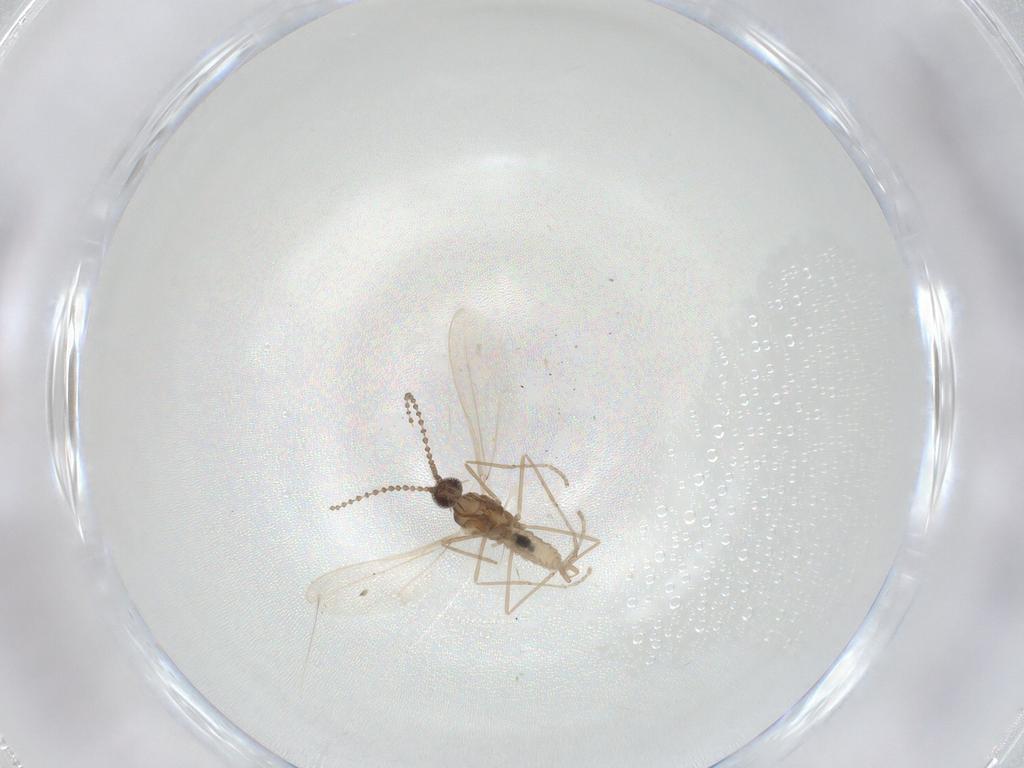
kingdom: Animalia
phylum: Arthropoda
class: Insecta
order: Diptera
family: Cecidomyiidae
